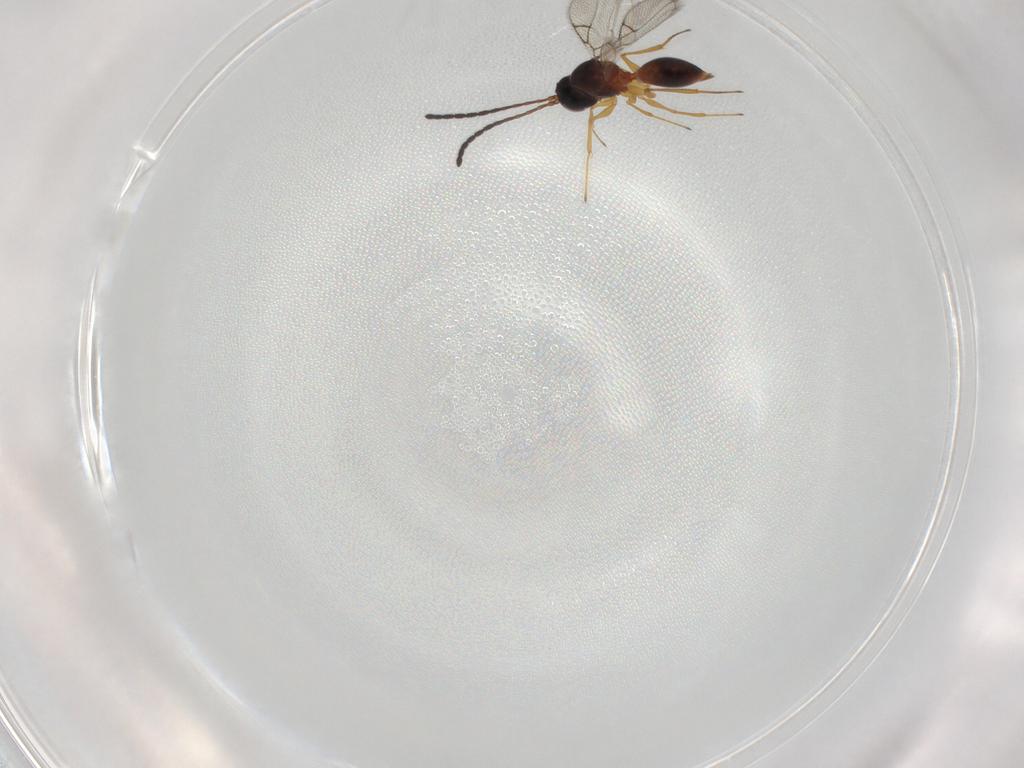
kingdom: Animalia
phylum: Arthropoda
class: Insecta
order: Hymenoptera
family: Figitidae
